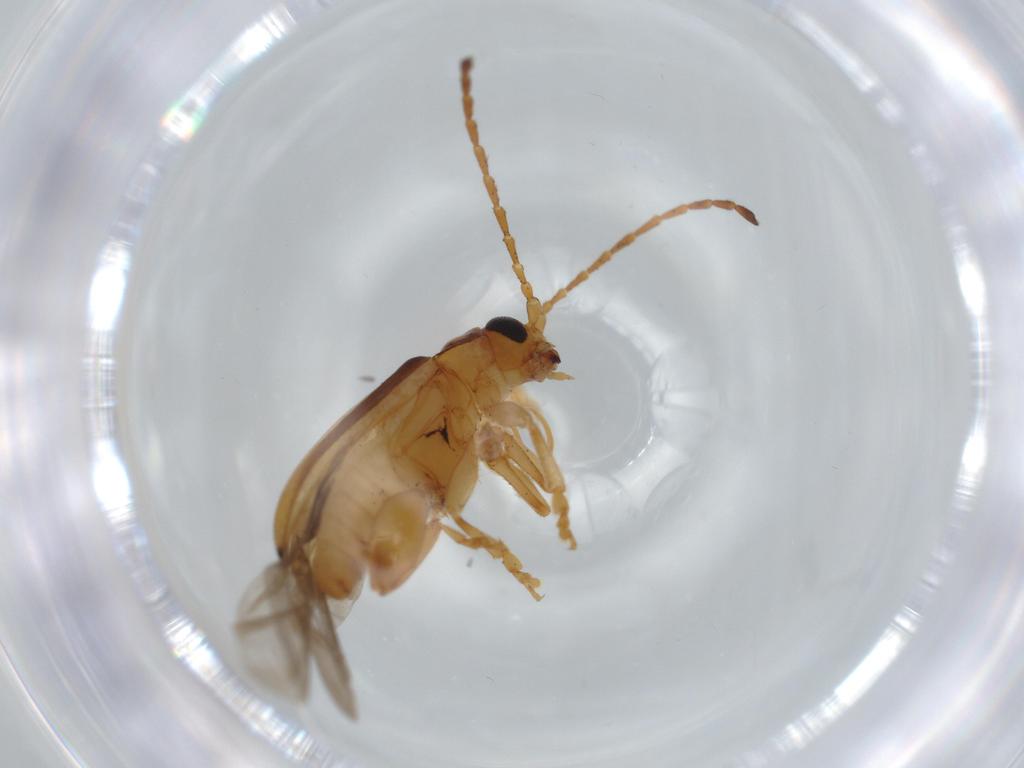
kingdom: Animalia
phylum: Arthropoda
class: Insecta
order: Coleoptera
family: Chrysomelidae
